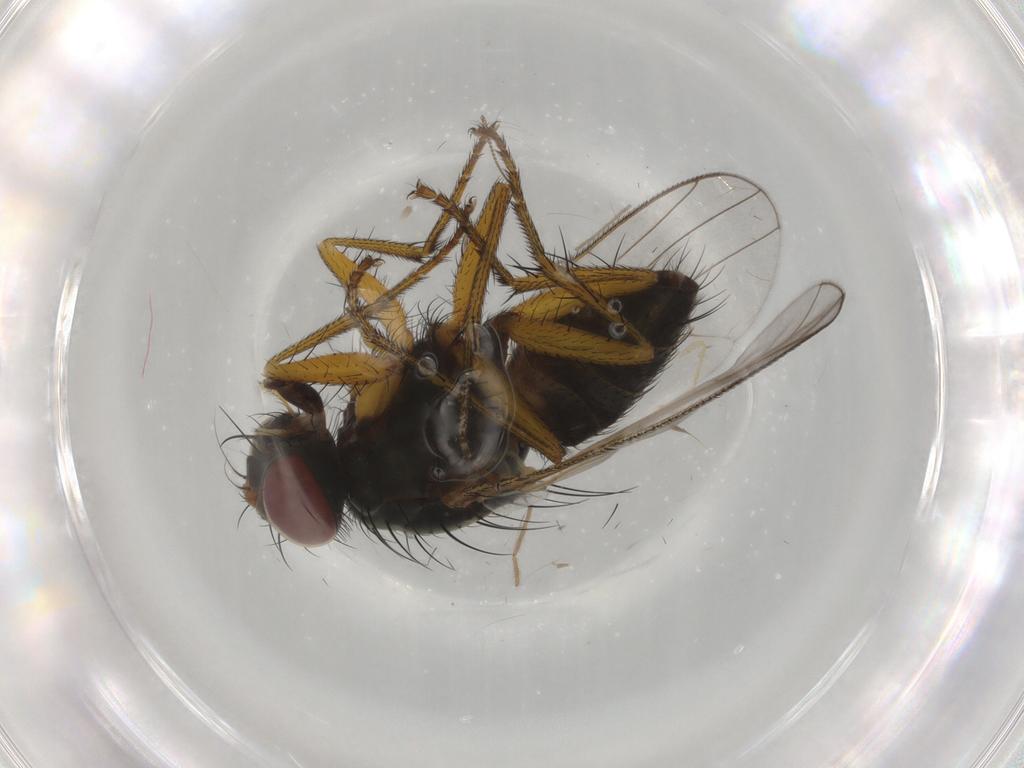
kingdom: Animalia
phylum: Arthropoda
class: Insecta
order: Diptera
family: Muscidae
